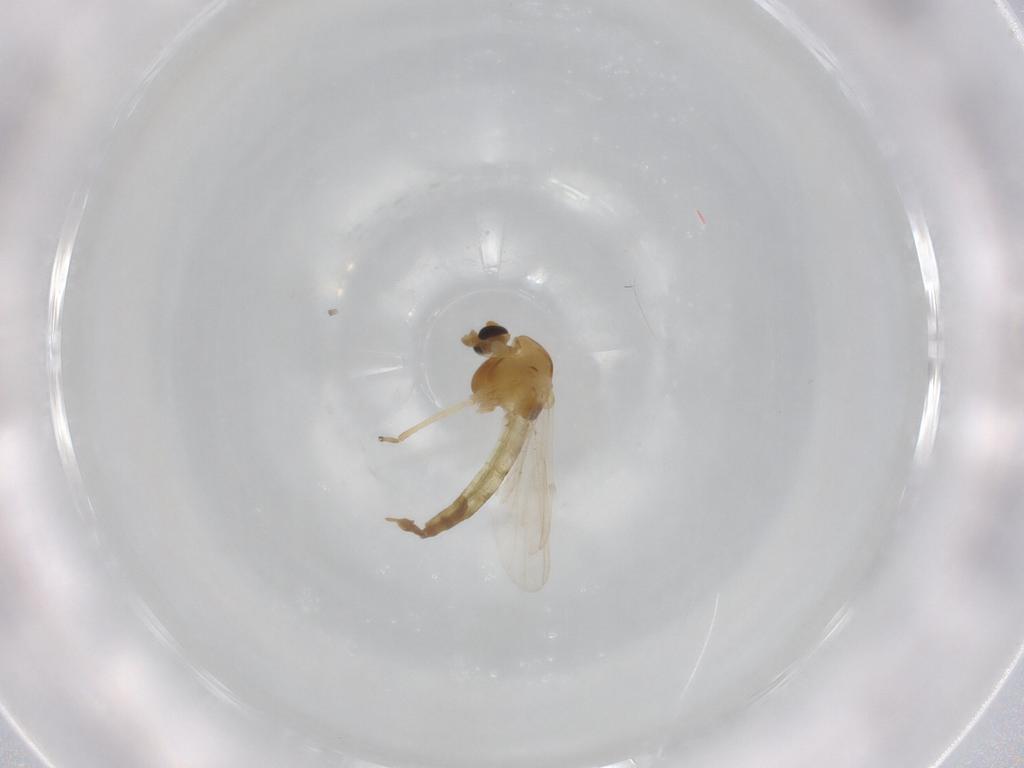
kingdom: Animalia
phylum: Arthropoda
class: Insecta
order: Diptera
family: Chironomidae
